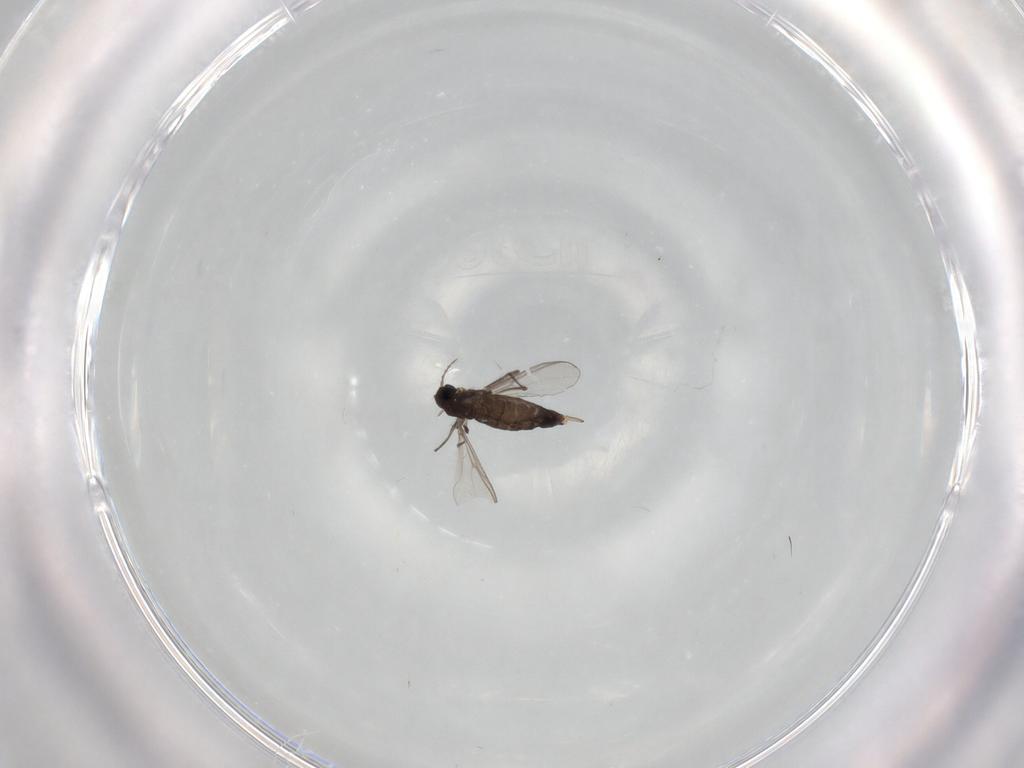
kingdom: Animalia
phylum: Arthropoda
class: Insecta
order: Diptera
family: Chironomidae
